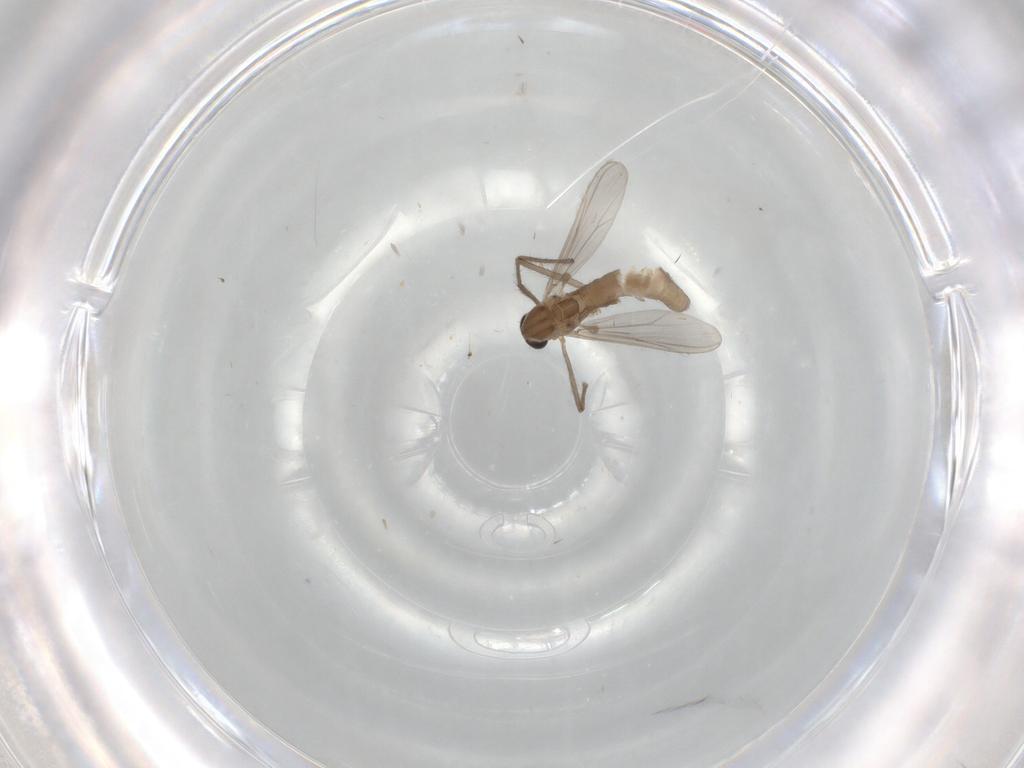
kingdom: Animalia
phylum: Arthropoda
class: Insecta
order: Diptera
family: Chironomidae
